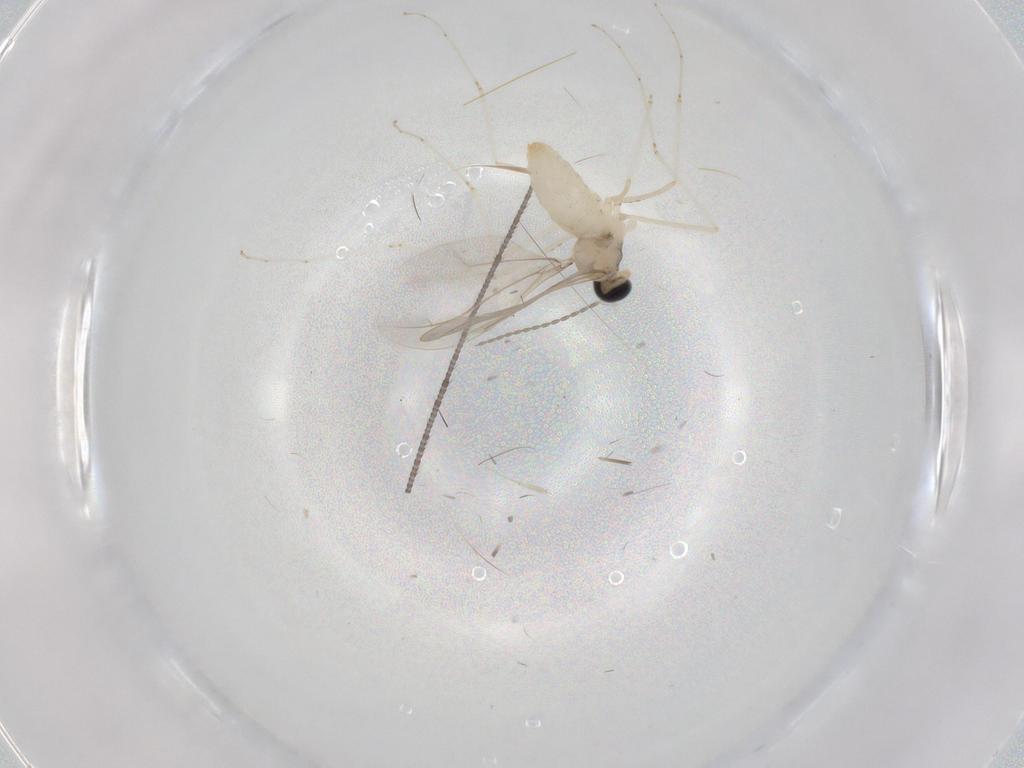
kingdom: Animalia
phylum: Arthropoda
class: Insecta
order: Diptera
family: Cecidomyiidae
